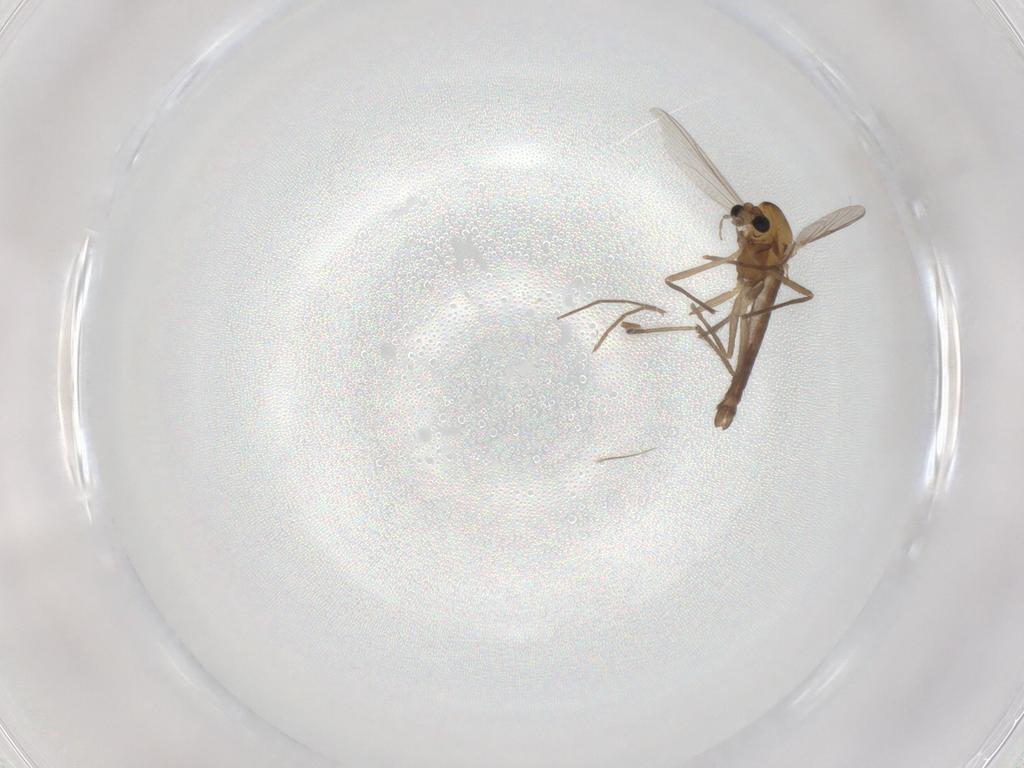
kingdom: Animalia
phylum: Arthropoda
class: Insecta
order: Diptera
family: Chironomidae
